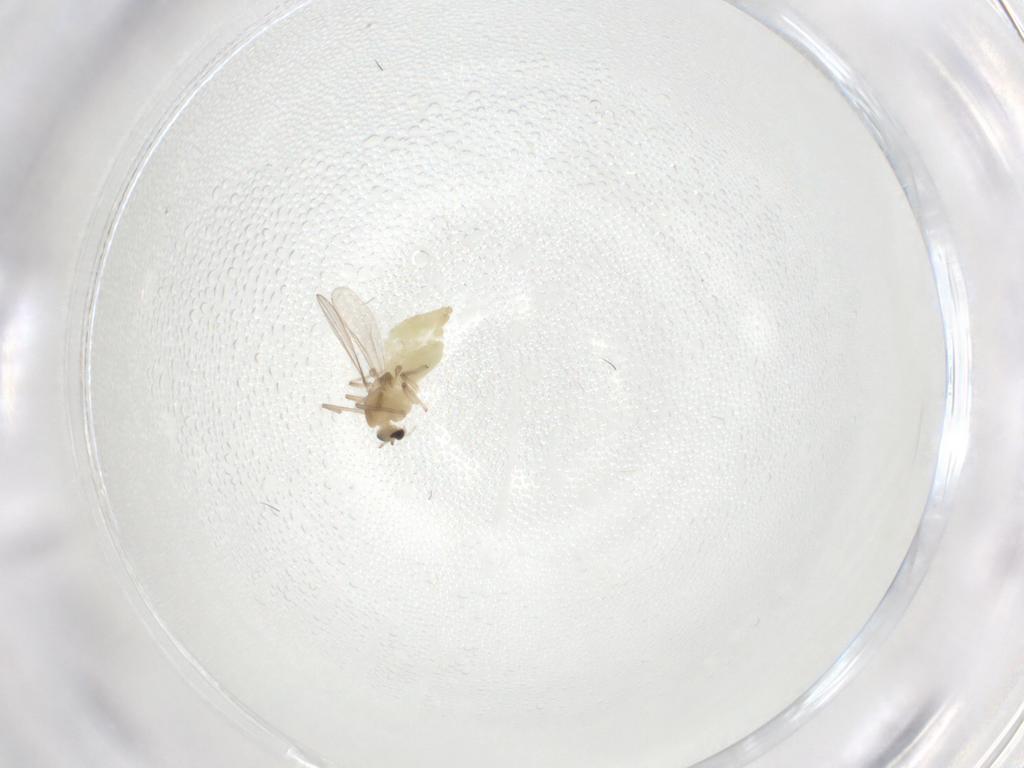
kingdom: Animalia
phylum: Arthropoda
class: Insecta
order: Diptera
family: Chironomidae
